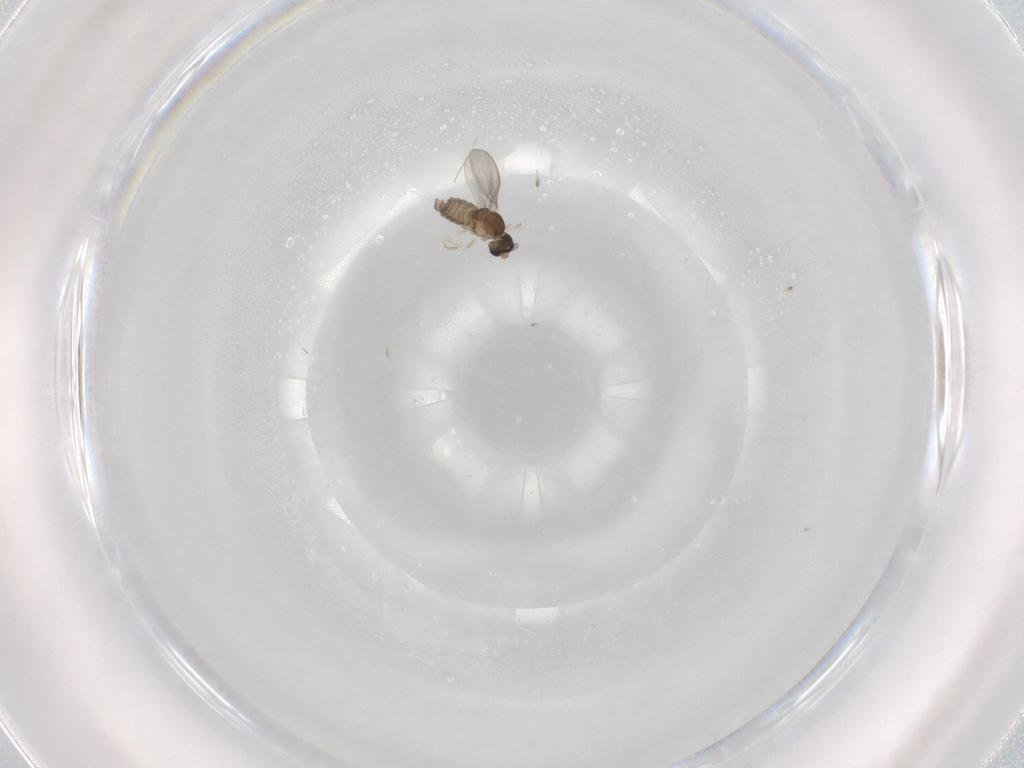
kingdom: Animalia
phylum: Arthropoda
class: Insecta
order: Diptera
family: Cecidomyiidae
